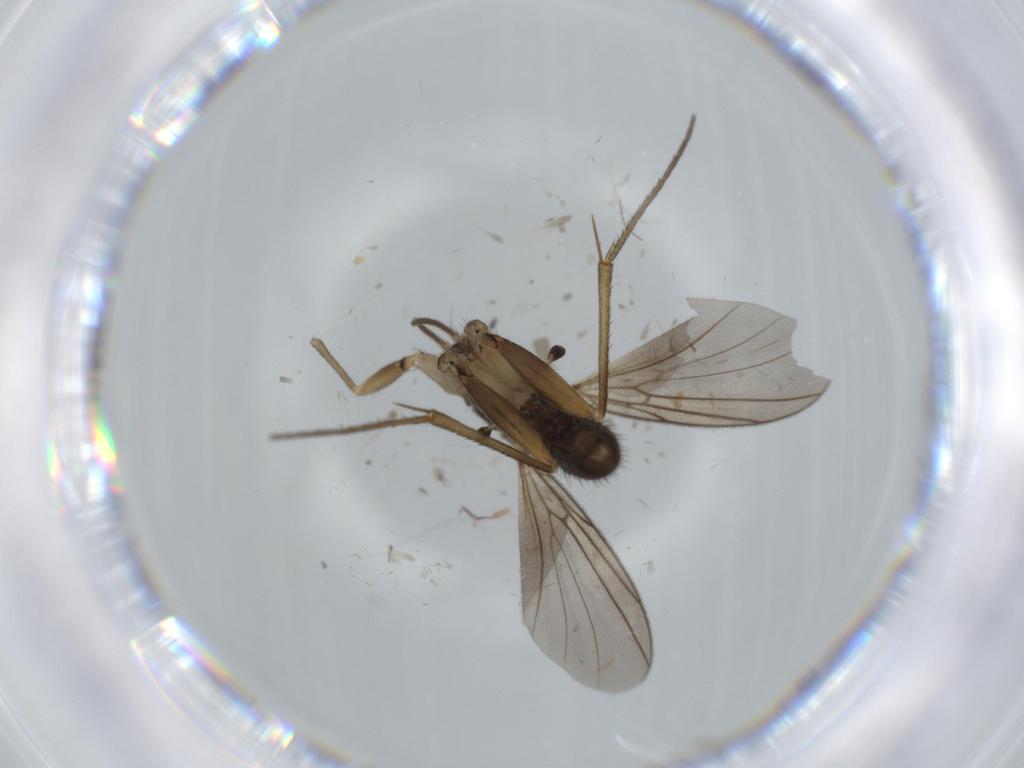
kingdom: Animalia
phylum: Arthropoda
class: Insecta
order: Diptera
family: Mycetophilidae
